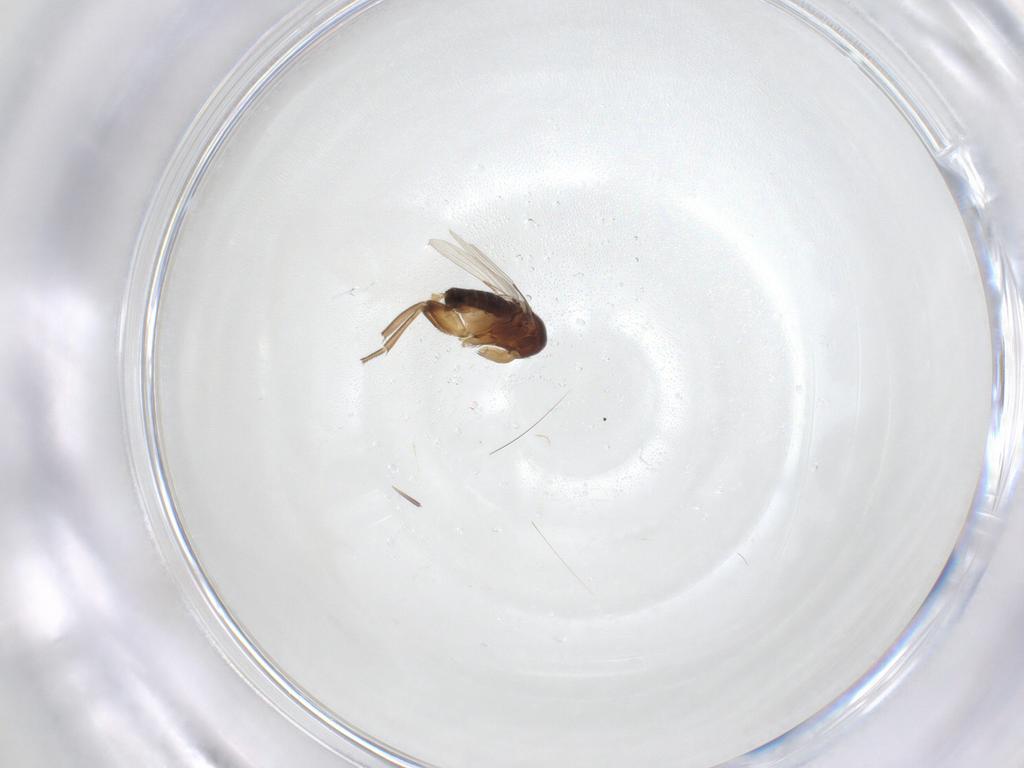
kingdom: Animalia
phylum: Arthropoda
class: Insecta
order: Diptera
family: Phoridae
